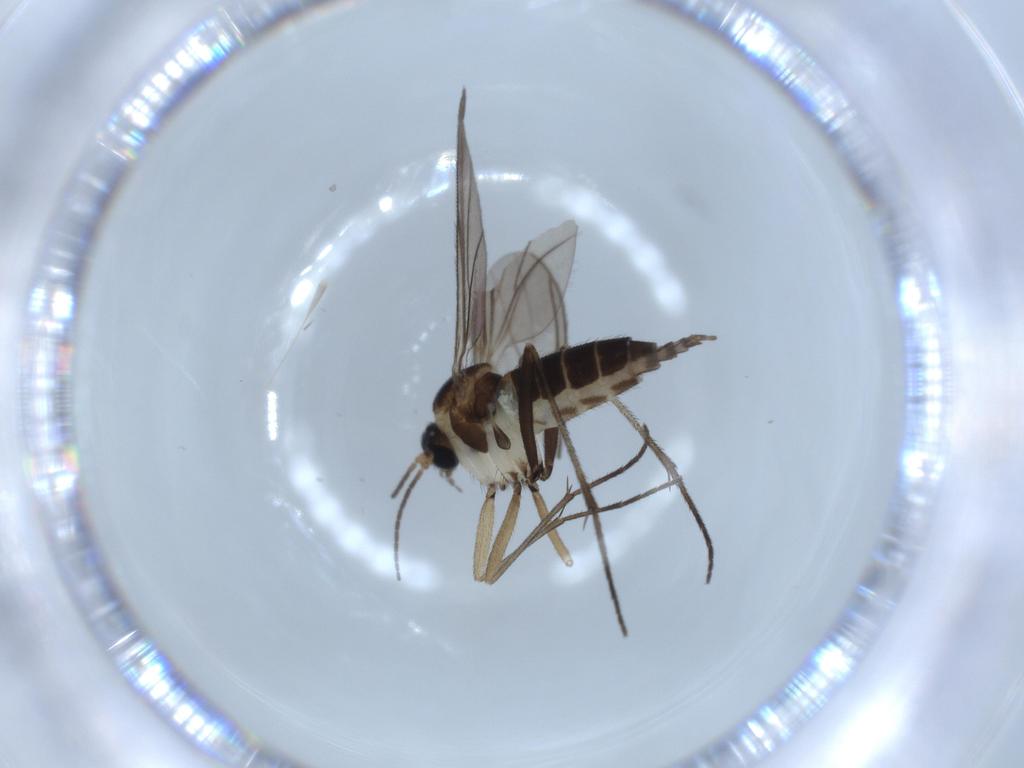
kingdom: Animalia
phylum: Arthropoda
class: Insecta
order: Diptera
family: Sciaridae
